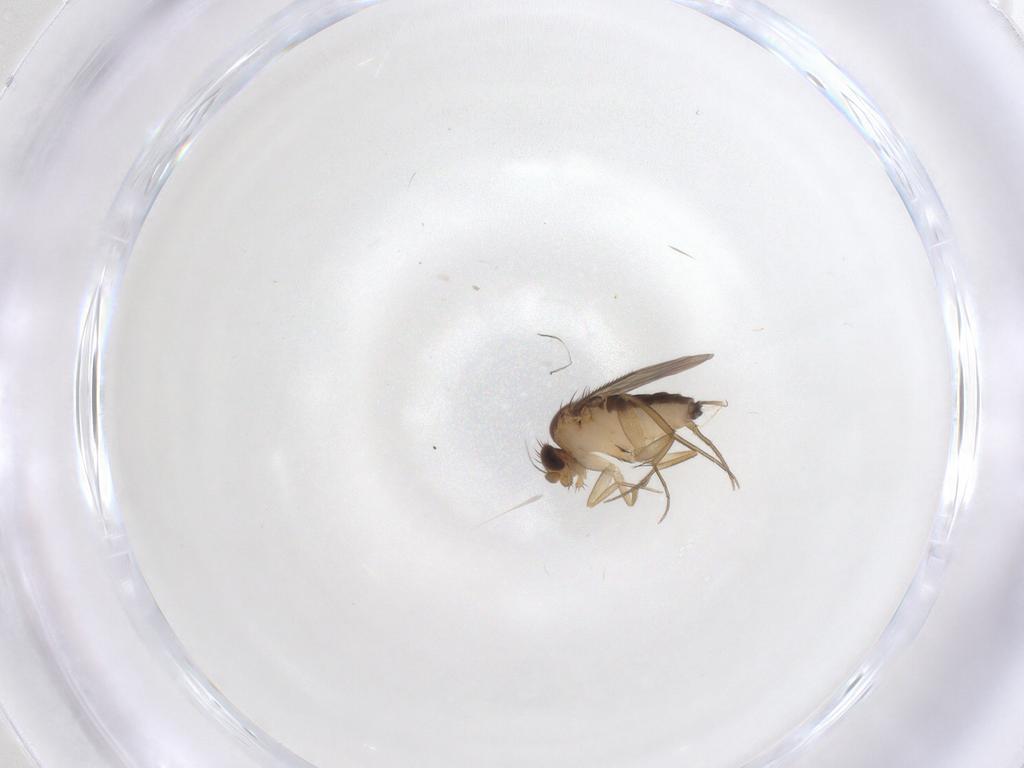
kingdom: Animalia
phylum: Arthropoda
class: Insecta
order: Diptera
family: Phoridae
